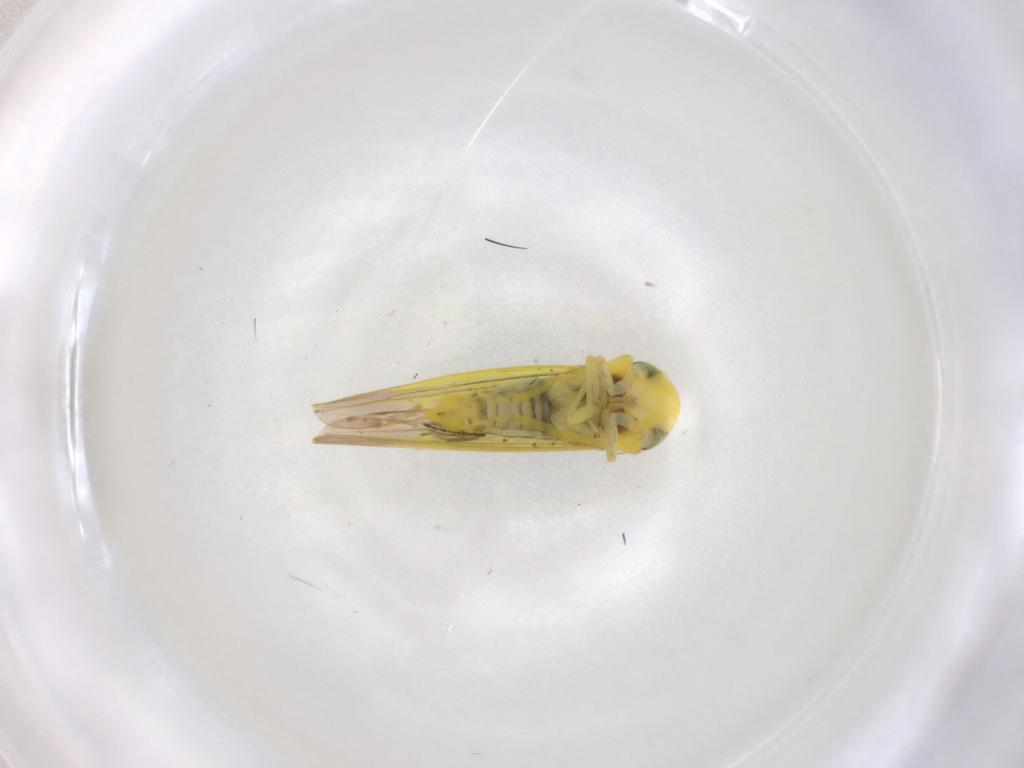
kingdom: Animalia
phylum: Arthropoda
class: Insecta
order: Hemiptera
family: Cicadellidae
